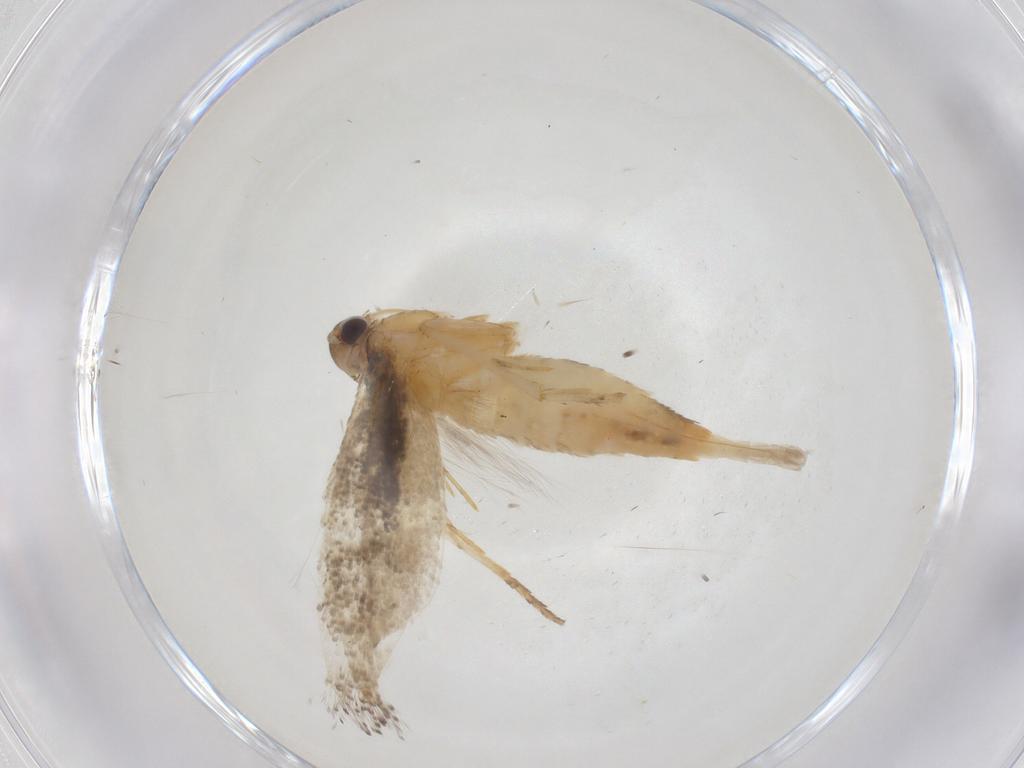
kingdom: Animalia
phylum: Arthropoda
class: Insecta
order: Lepidoptera
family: Gelechiidae
